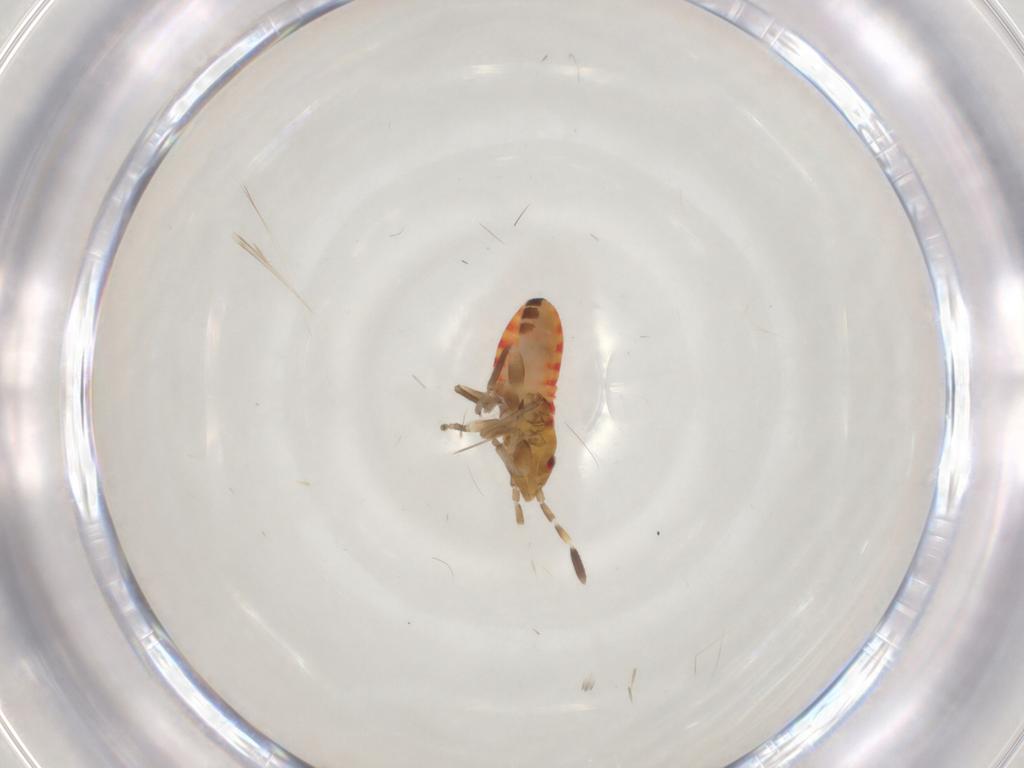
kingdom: Animalia
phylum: Arthropoda
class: Insecta
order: Hemiptera
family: Cicadellidae
